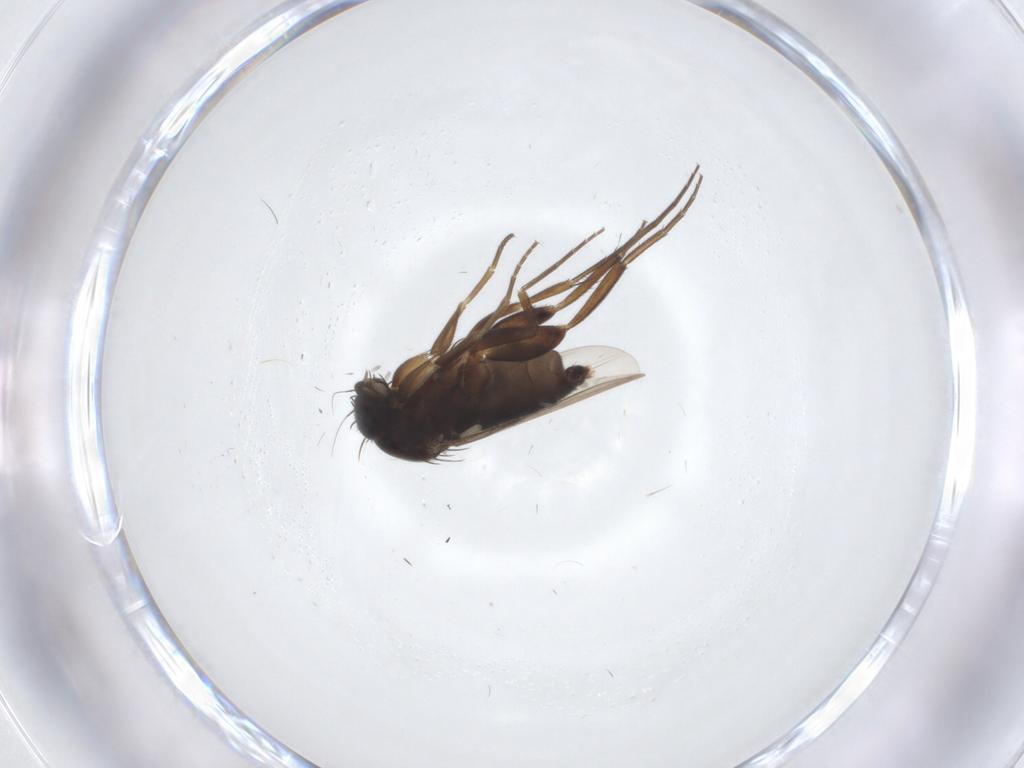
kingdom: Animalia
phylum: Arthropoda
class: Insecta
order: Diptera
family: Phoridae
